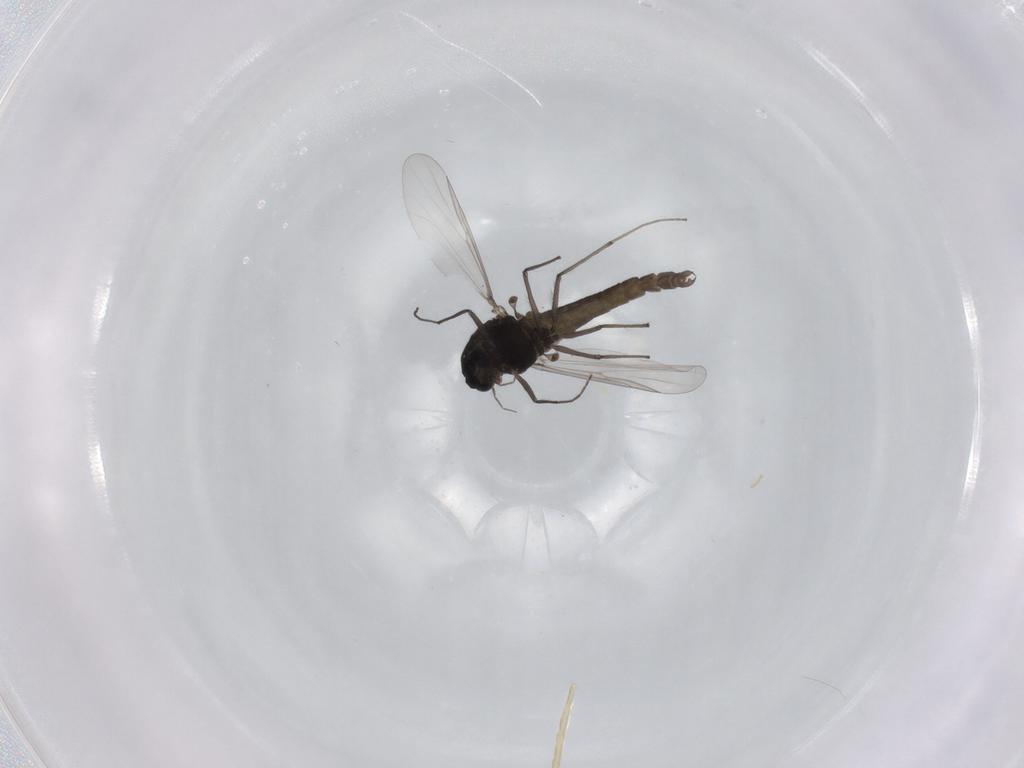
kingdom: Animalia
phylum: Arthropoda
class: Insecta
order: Diptera
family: Chironomidae
